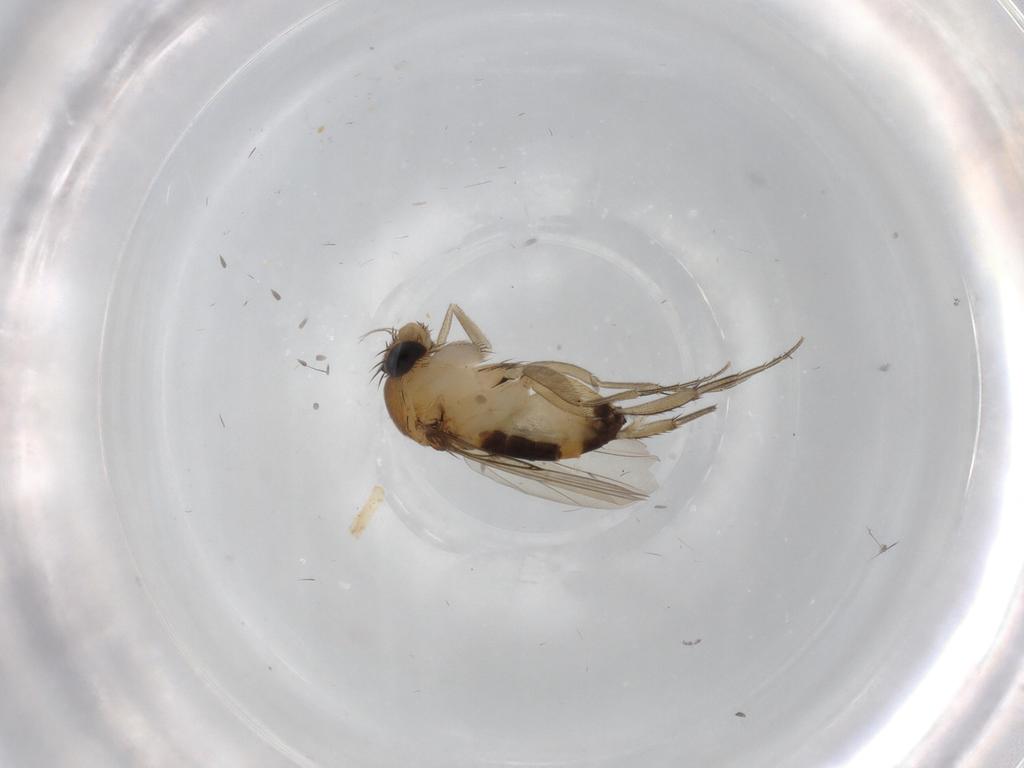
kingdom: Animalia
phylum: Arthropoda
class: Insecta
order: Diptera
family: Phoridae
